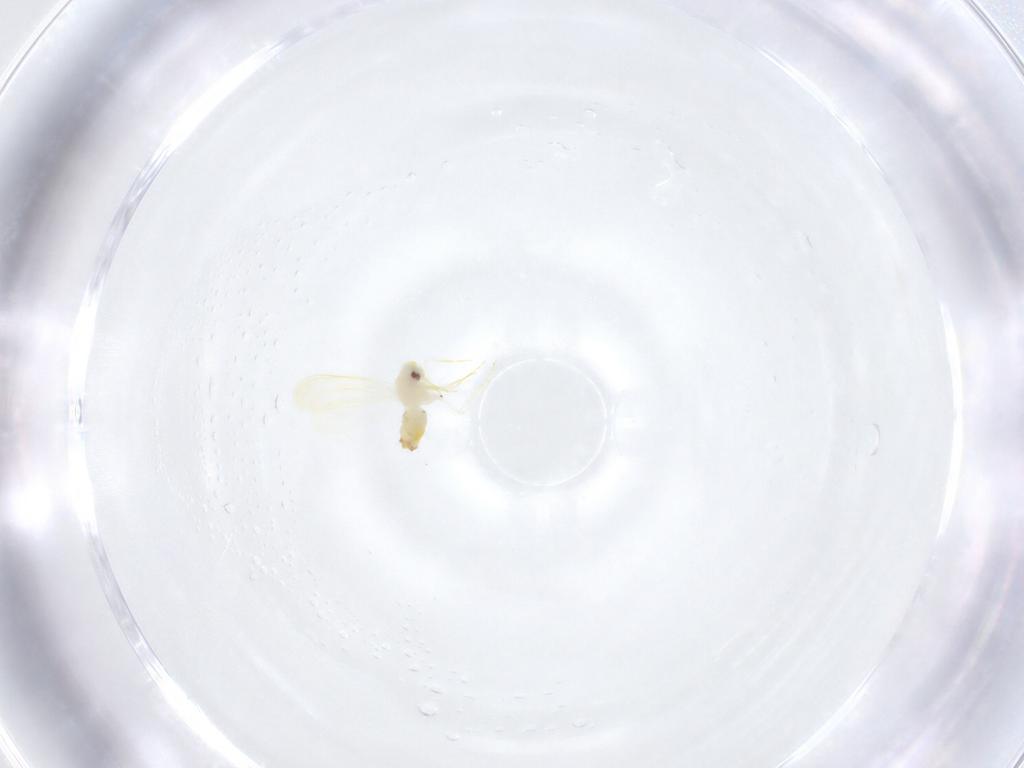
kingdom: Animalia
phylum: Arthropoda
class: Insecta
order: Hemiptera
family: Aleyrodidae
